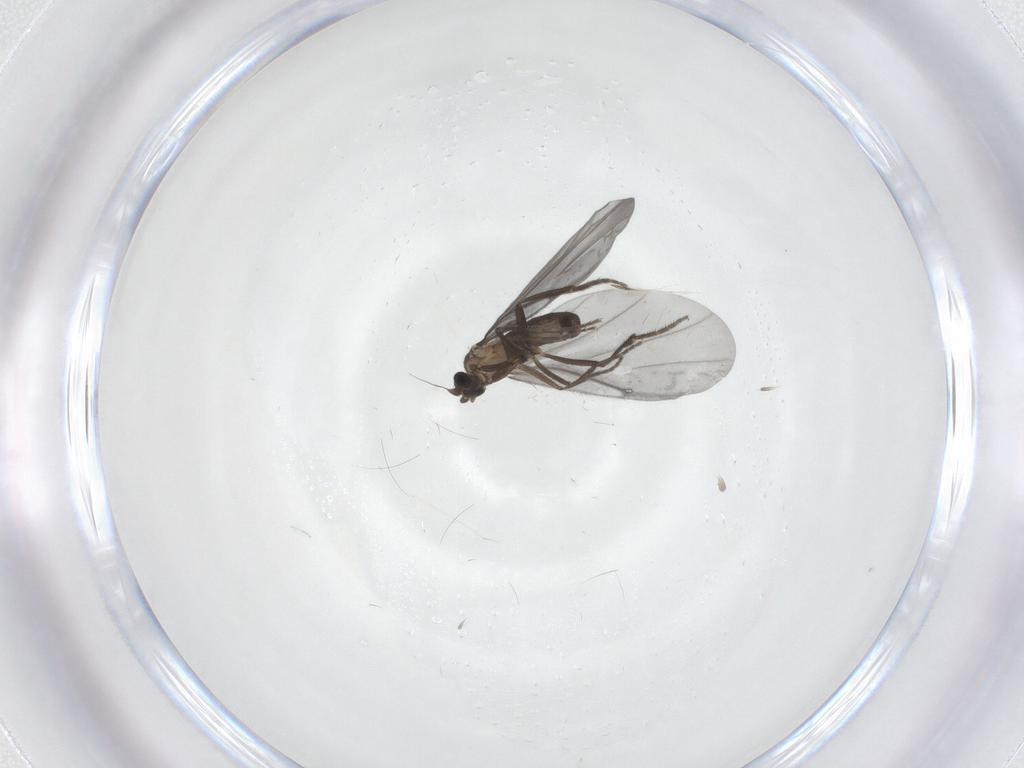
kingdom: Animalia
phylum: Arthropoda
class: Insecta
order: Diptera
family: Phoridae
